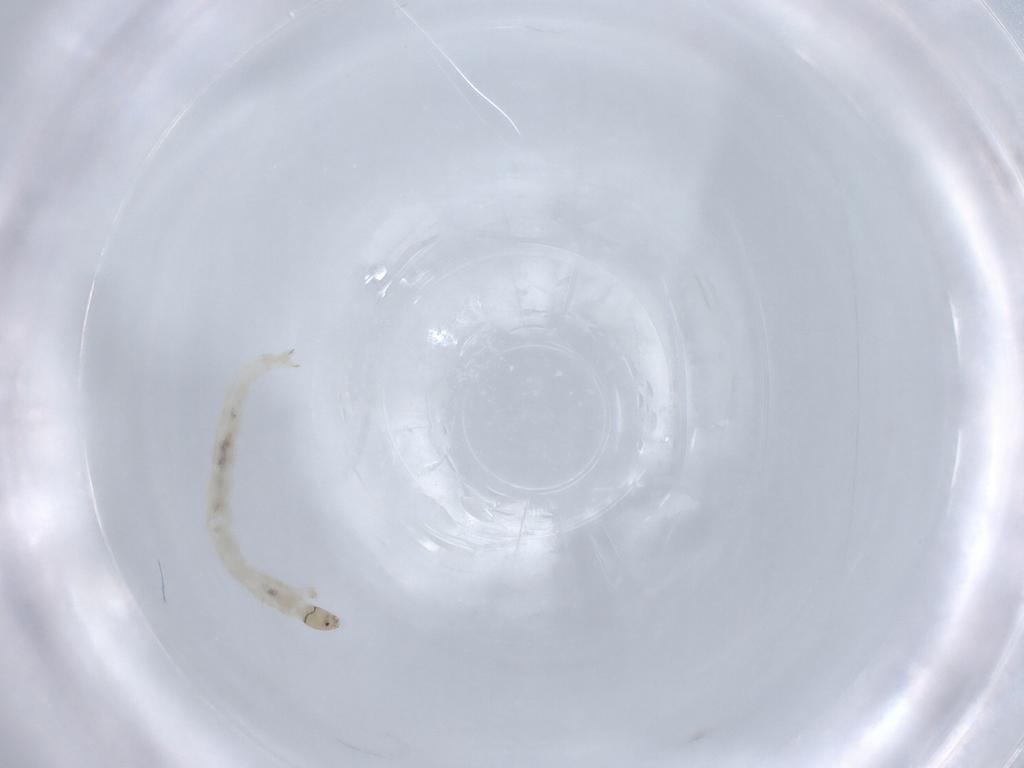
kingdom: Animalia
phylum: Arthropoda
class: Insecta
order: Diptera
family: Chironomidae
